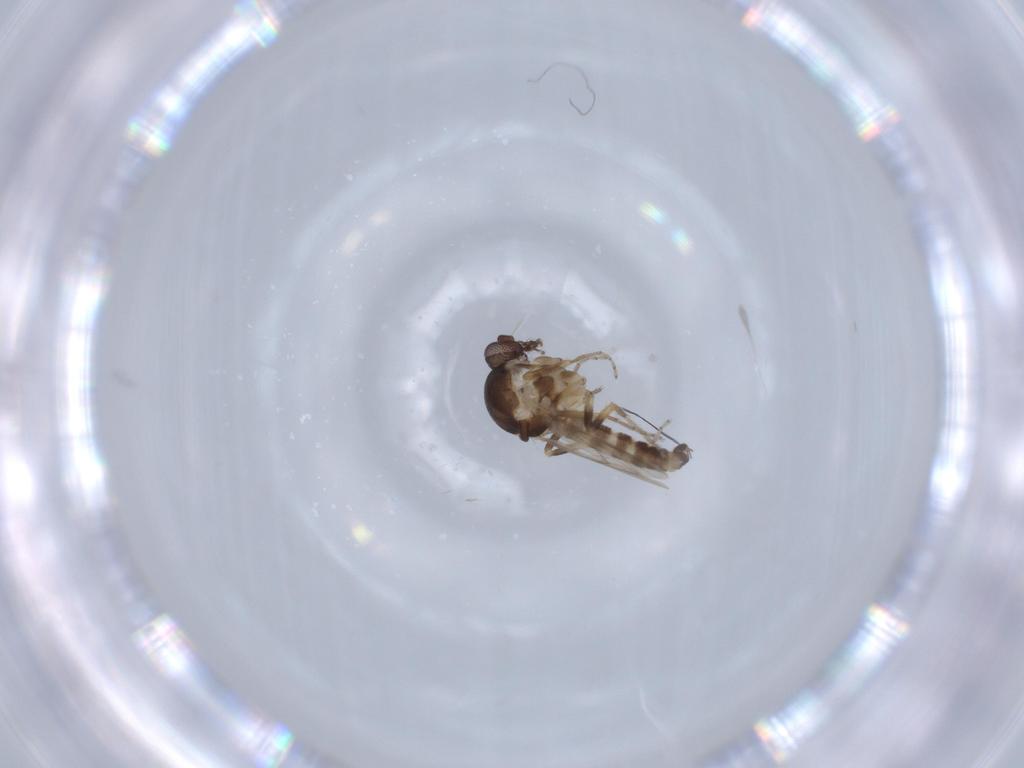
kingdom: Animalia
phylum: Arthropoda
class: Insecta
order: Diptera
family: Ceratopogonidae
